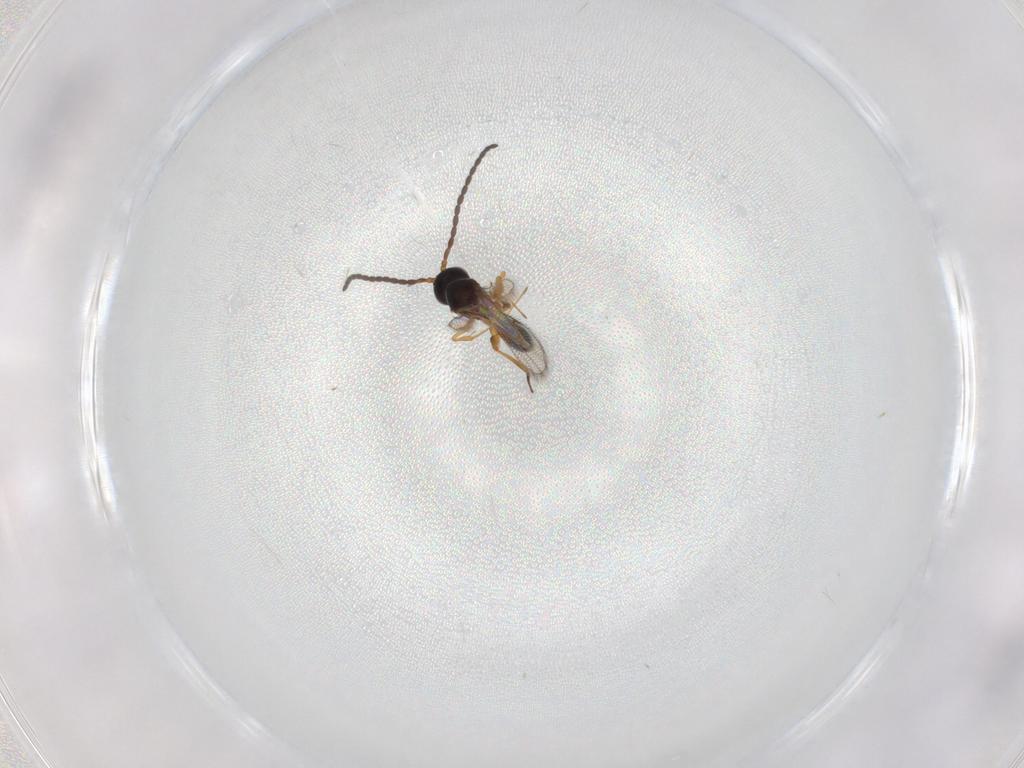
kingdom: Animalia
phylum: Arthropoda
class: Insecta
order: Hymenoptera
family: Figitidae
